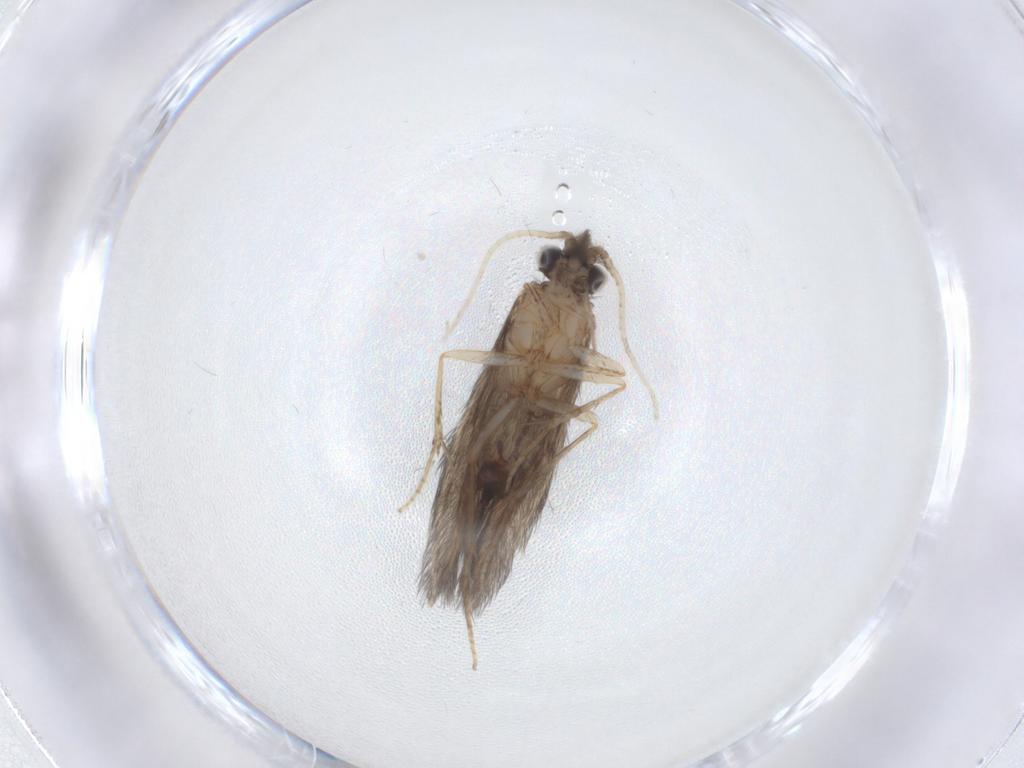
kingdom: Animalia
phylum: Arthropoda
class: Insecta
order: Trichoptera
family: Hydroptilidae
